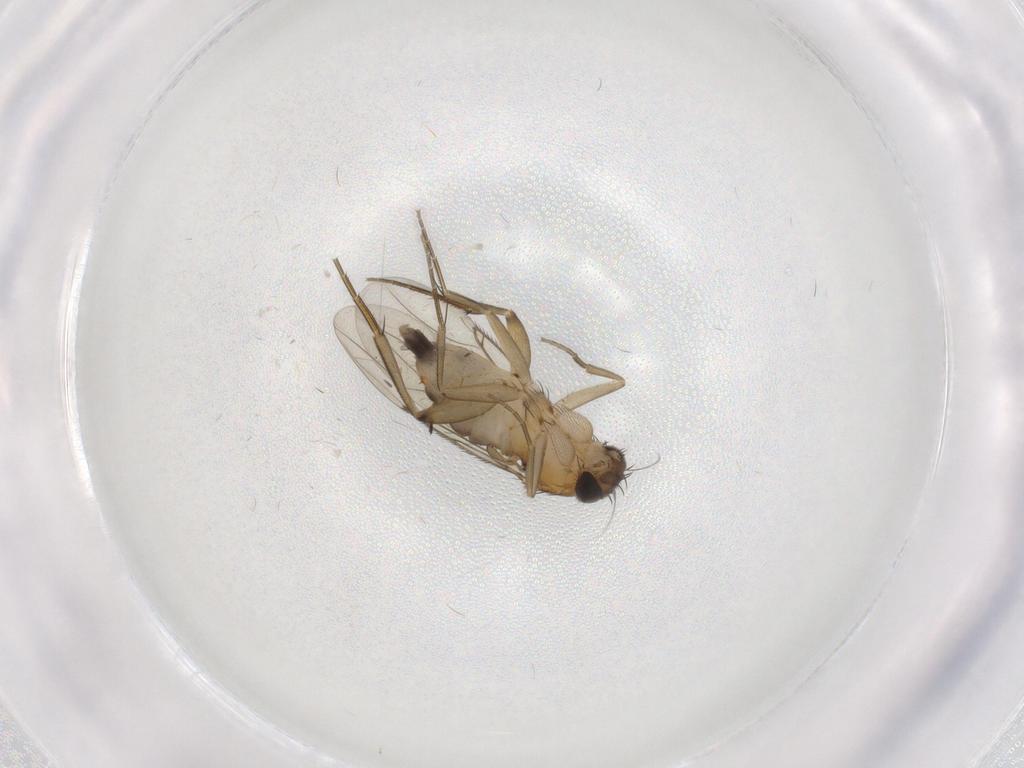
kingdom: Animalia
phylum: Arthropoda
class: Insecta
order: Diptera
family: Phoridae
